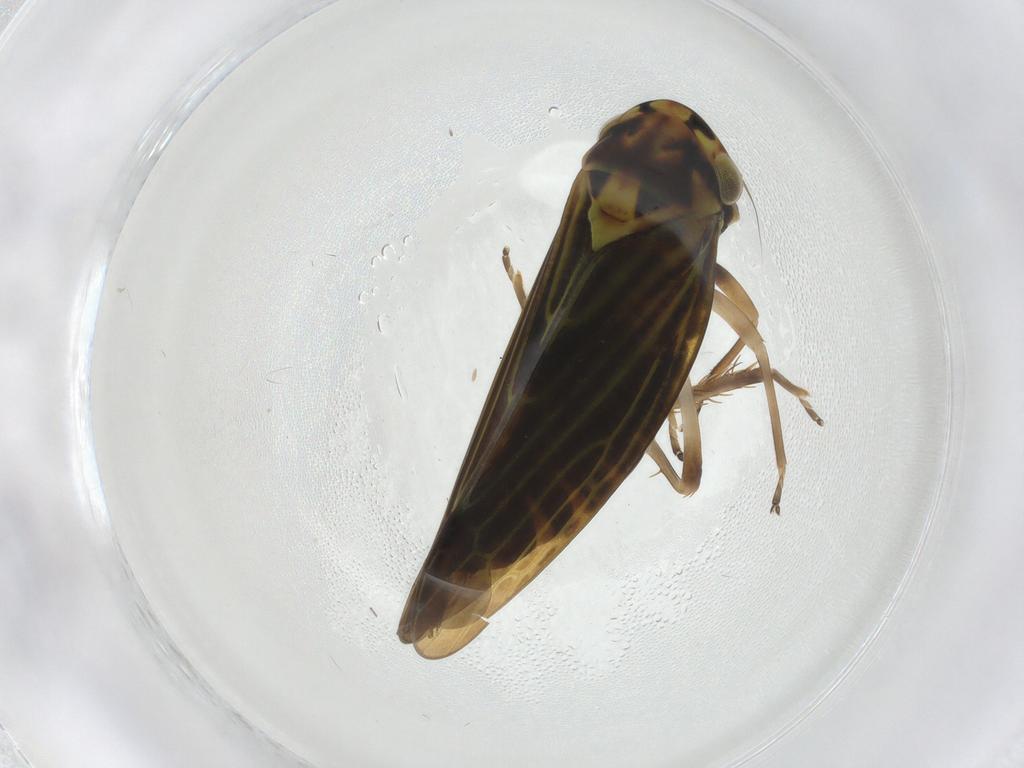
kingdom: Animalia
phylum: Arthropoda
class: Insecta
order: Hemiptera
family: Cicadellidae
